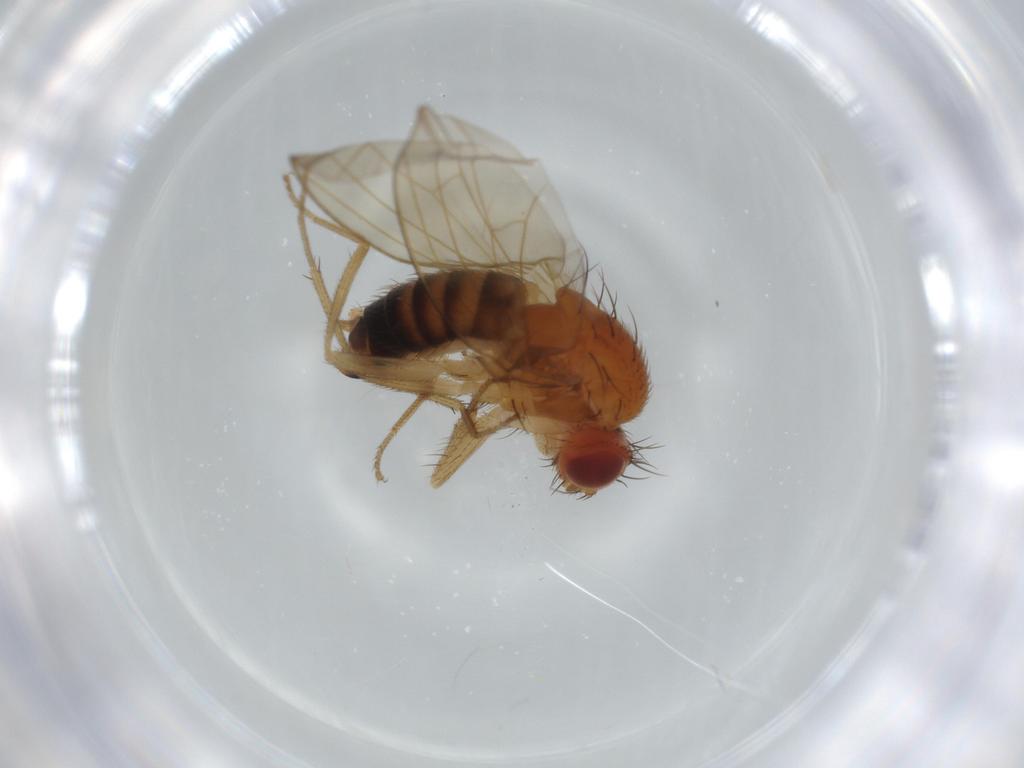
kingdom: Animalia
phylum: Arthropoda
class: Insecta
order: Diptera
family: Drosophilidae
